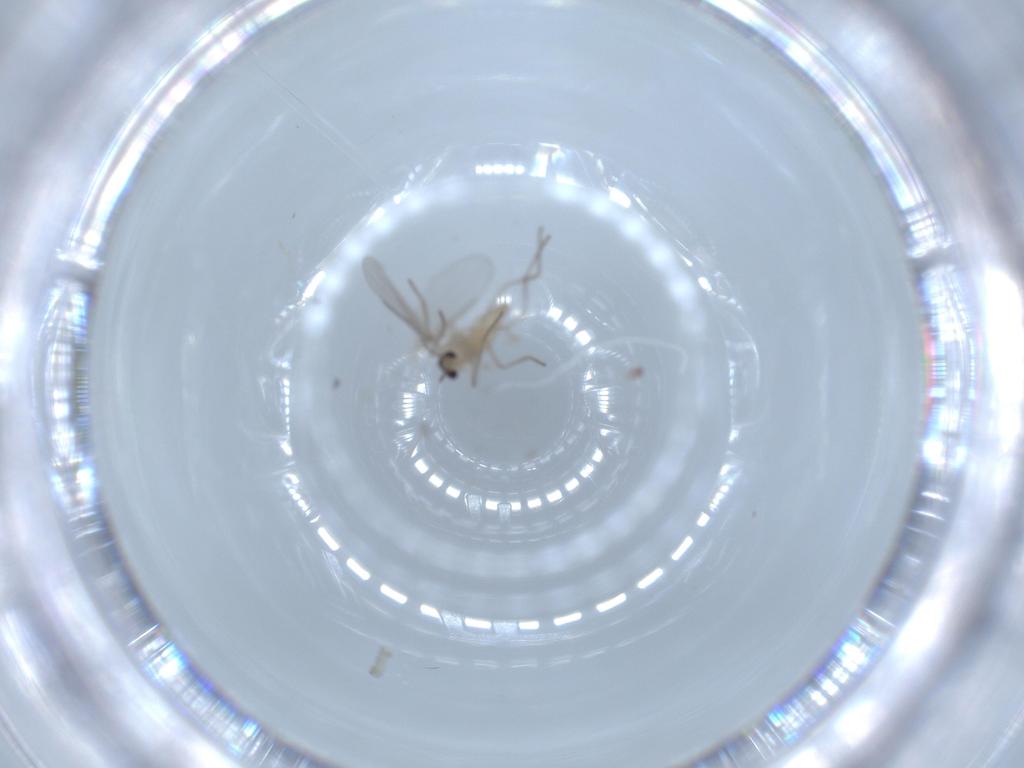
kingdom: Animalia
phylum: Arthropoda
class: Insecta
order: Diptera
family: Cecidomyiidae
